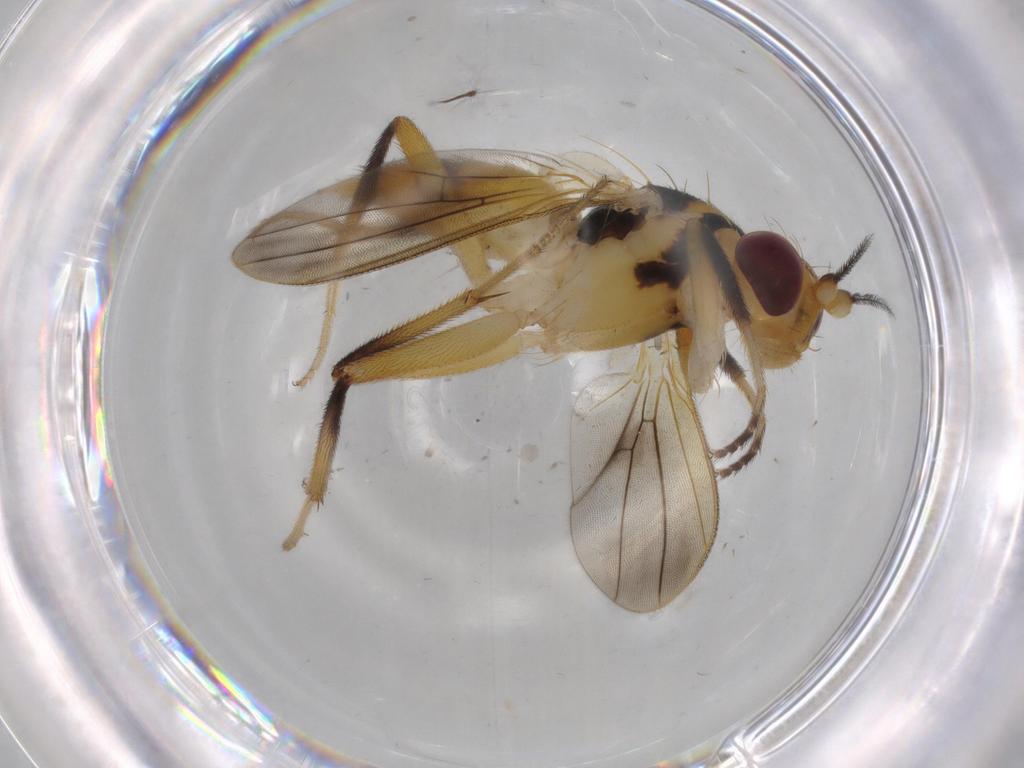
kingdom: Animalia
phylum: Arthropoda
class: Insecta
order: Diptera
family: Clusiidae
